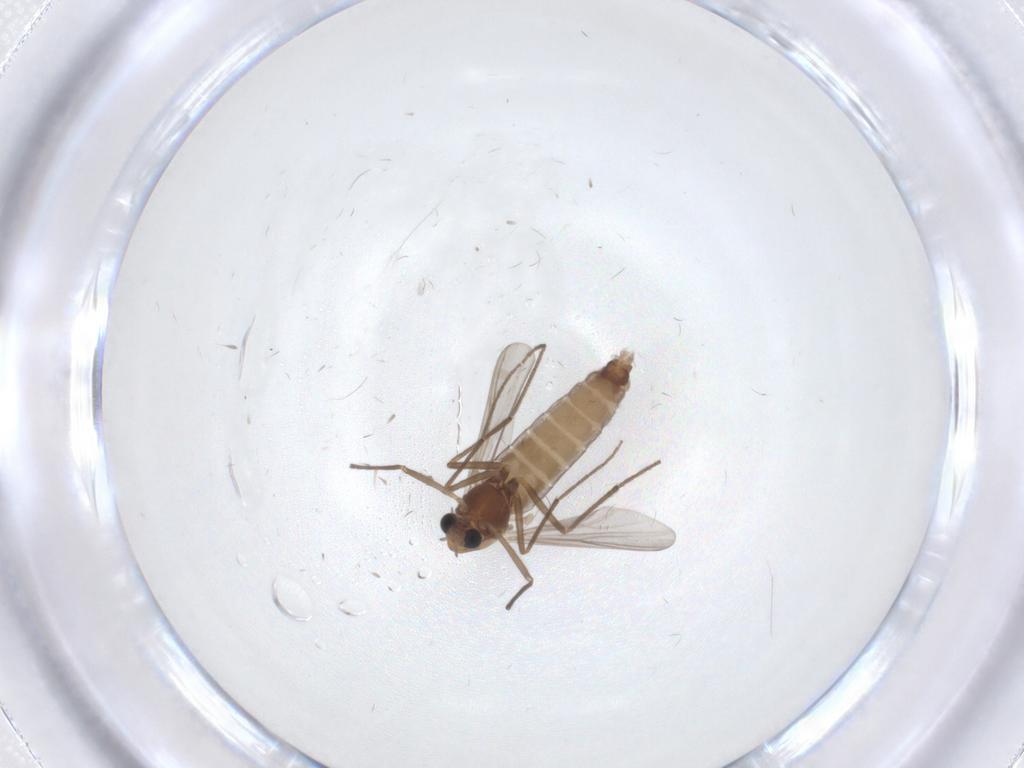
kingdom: Animalia
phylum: Arthropoda
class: Insecta
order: Diptera
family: Chironomidae
